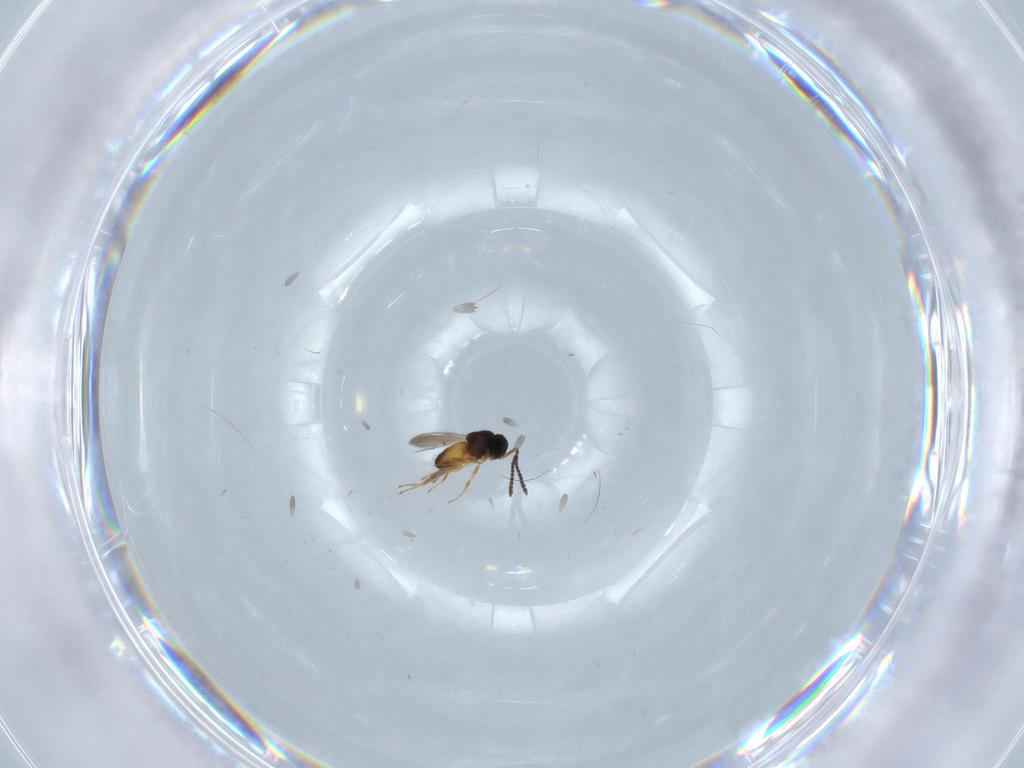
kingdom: Animalia
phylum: Arthropoda
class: Insecta
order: Hymenoptera
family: Scelionidae
